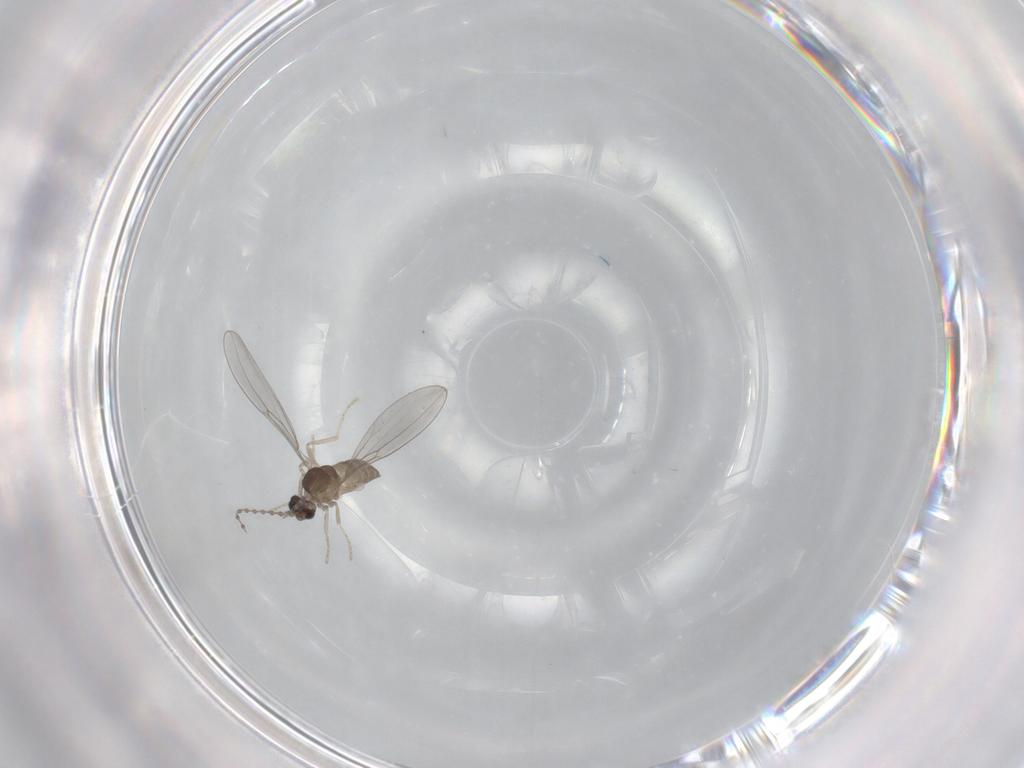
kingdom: Animalia
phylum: Arthropoda
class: Insecta
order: Diptera
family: Cecidomyiidae
